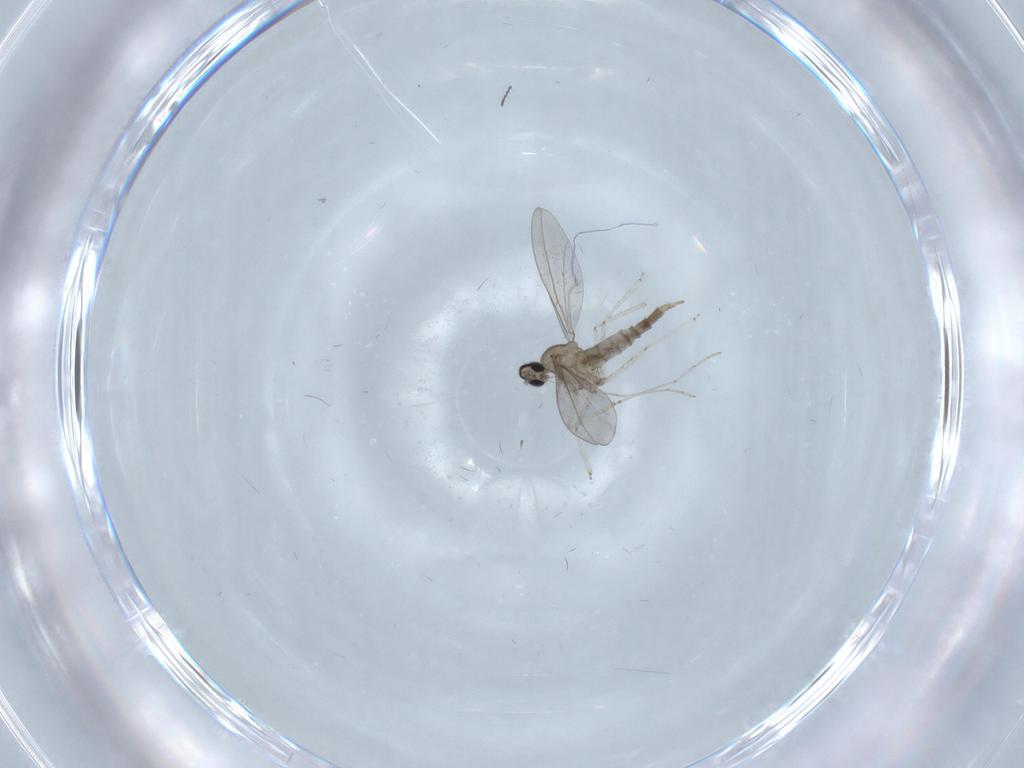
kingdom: Animalia
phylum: Arthropoda
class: Insecta
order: Diptera
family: Cecidomyiidae
